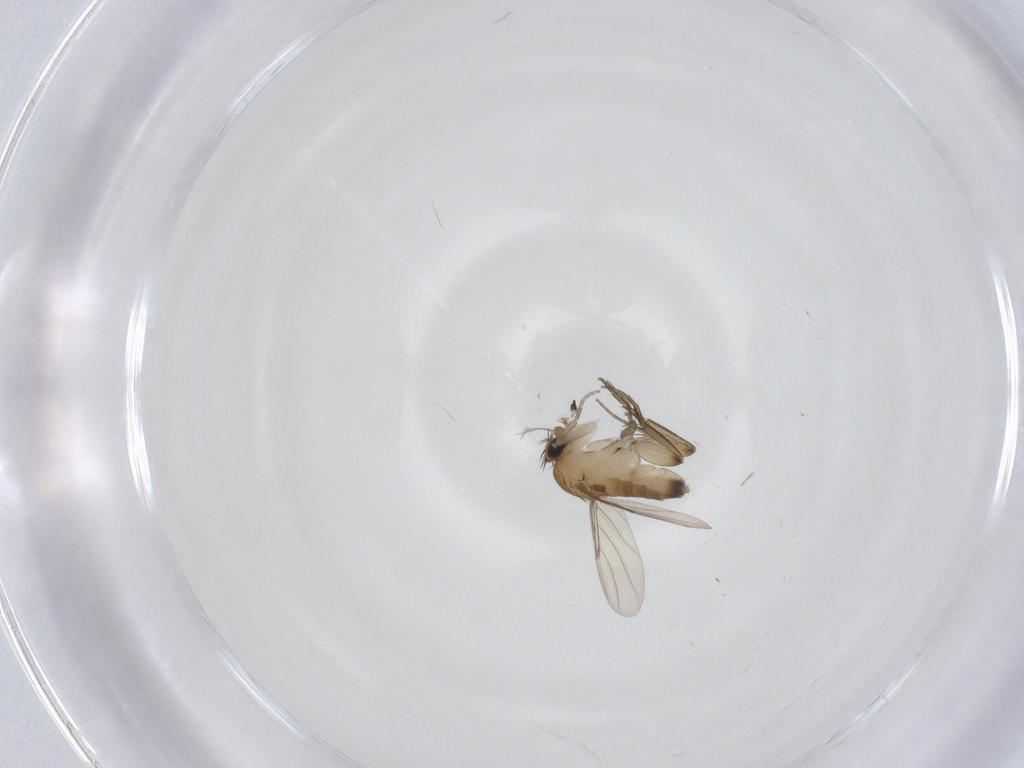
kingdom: Animalia
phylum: Arthropoda
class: Insecta
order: Diptera
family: Phoridae
